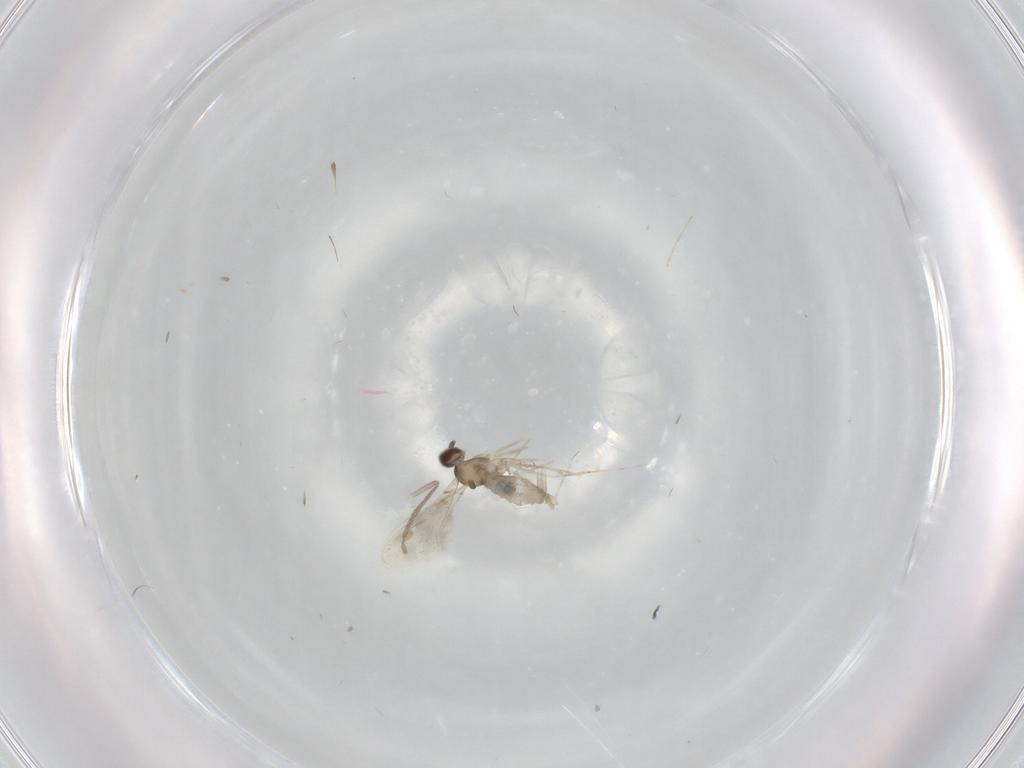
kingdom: Animalia
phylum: Arthropoda
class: Insecta
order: Diptera
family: Cecidomyiidae
